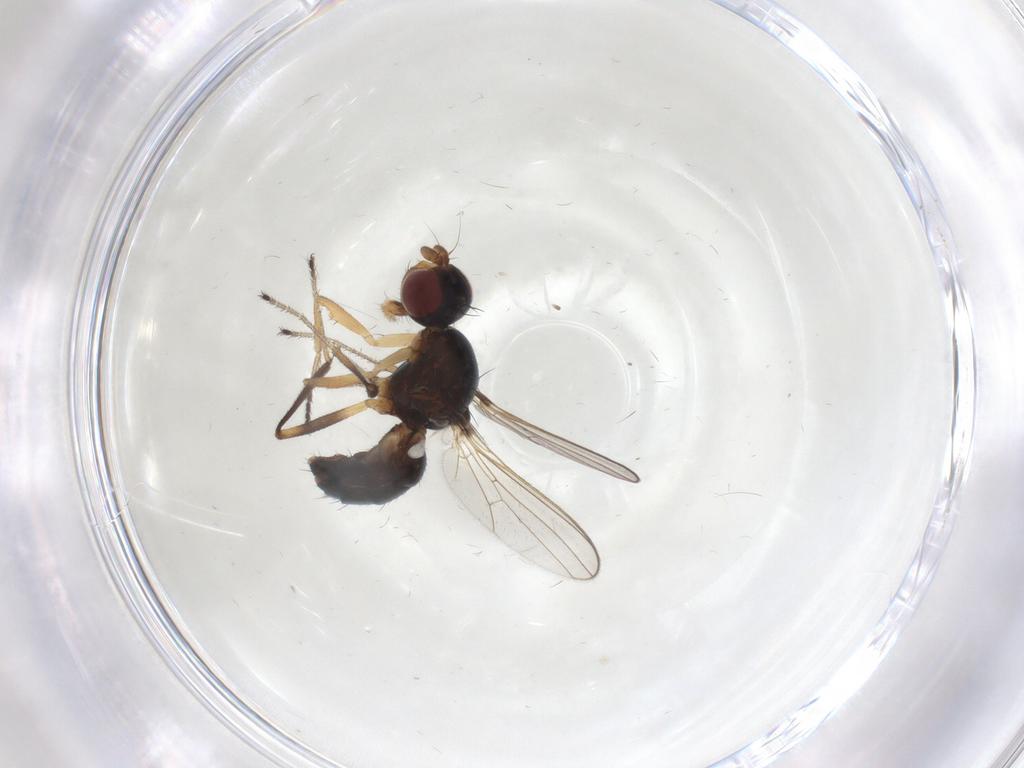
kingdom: Animalia
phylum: Arthropoda
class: Insecta
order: Diptera
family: Sepsidae
